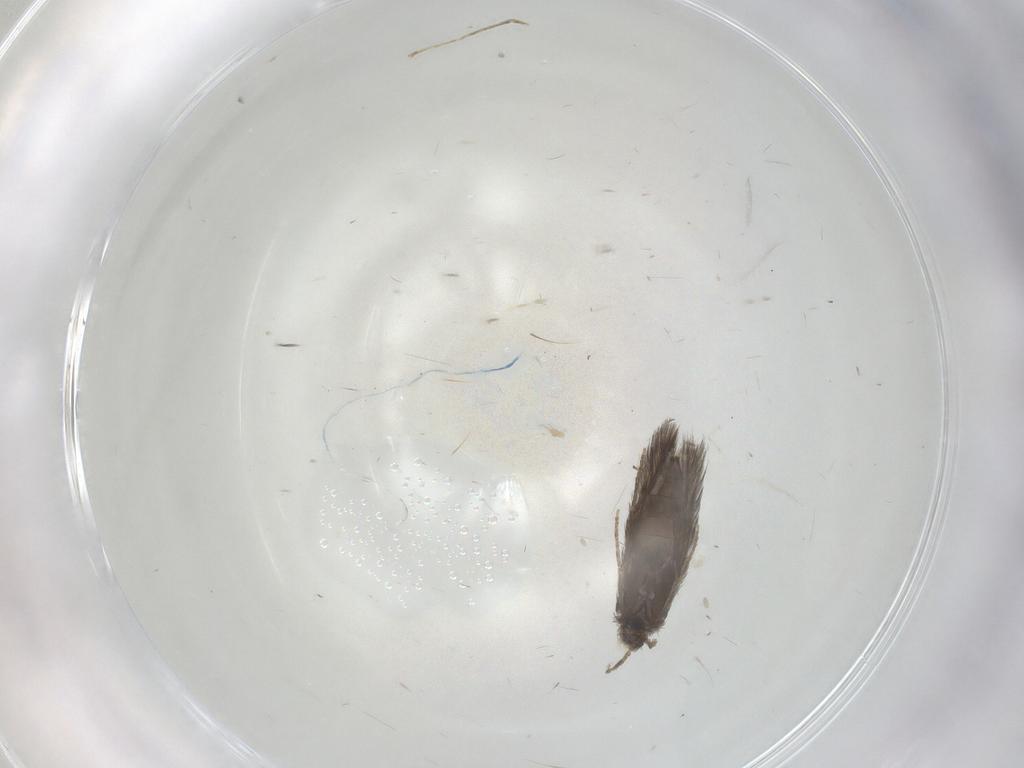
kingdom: Animalia
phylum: Arthropoda
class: Insecta
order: Trichoptera
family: Hydroptilidae
